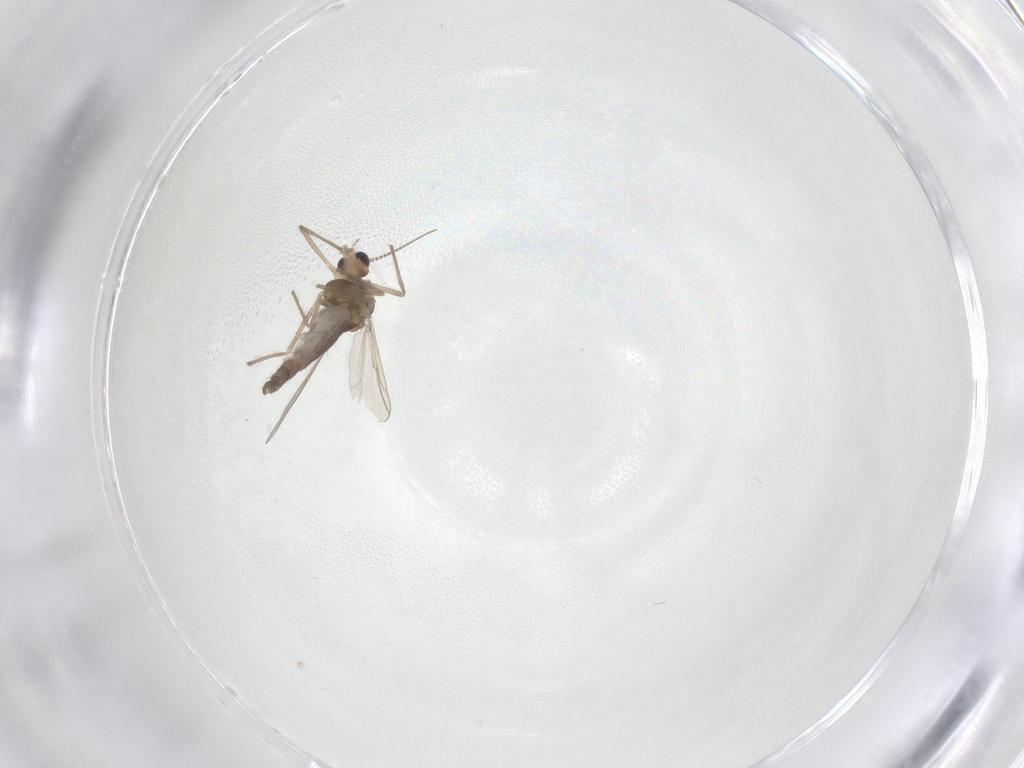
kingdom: Animalia
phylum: Arthropoda
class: Insecta
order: Diptera
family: Chironomidae
